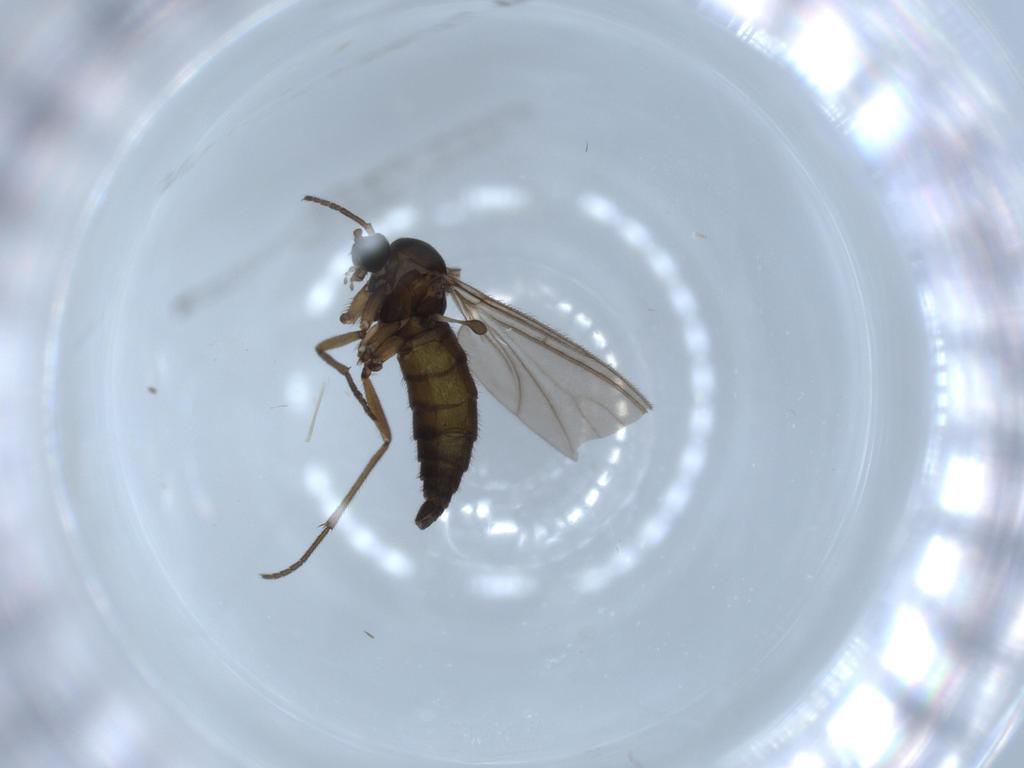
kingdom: Animalia
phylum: Arthropoda
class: Insecta
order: Diptera
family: Sciaridae
